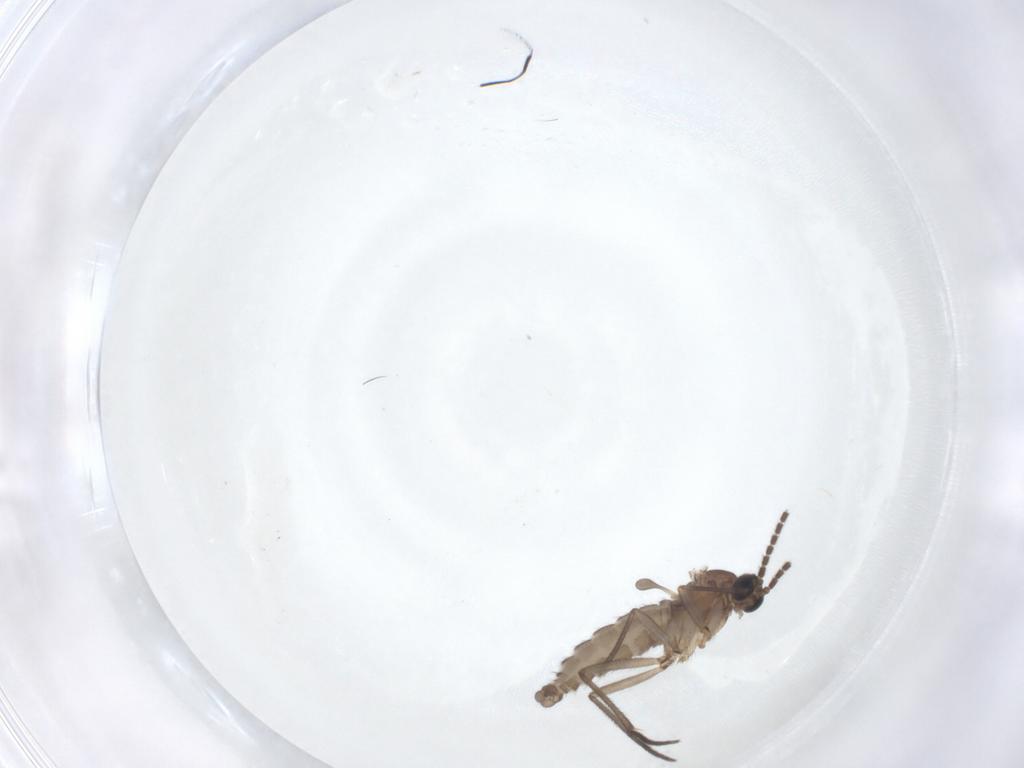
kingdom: Animalia
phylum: Arthropoda
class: Insecta
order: Diptera
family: Sciaridae
